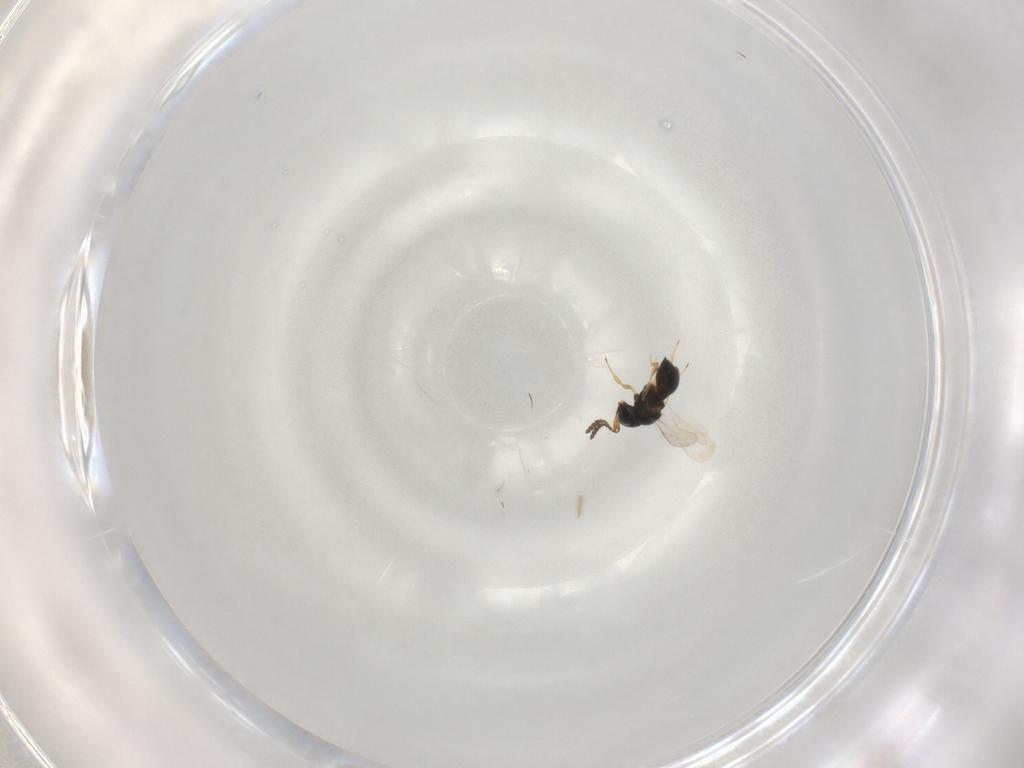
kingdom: Animalia
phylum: Arthropoda
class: Insecta
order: Hymenoptera
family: Scelionidae
